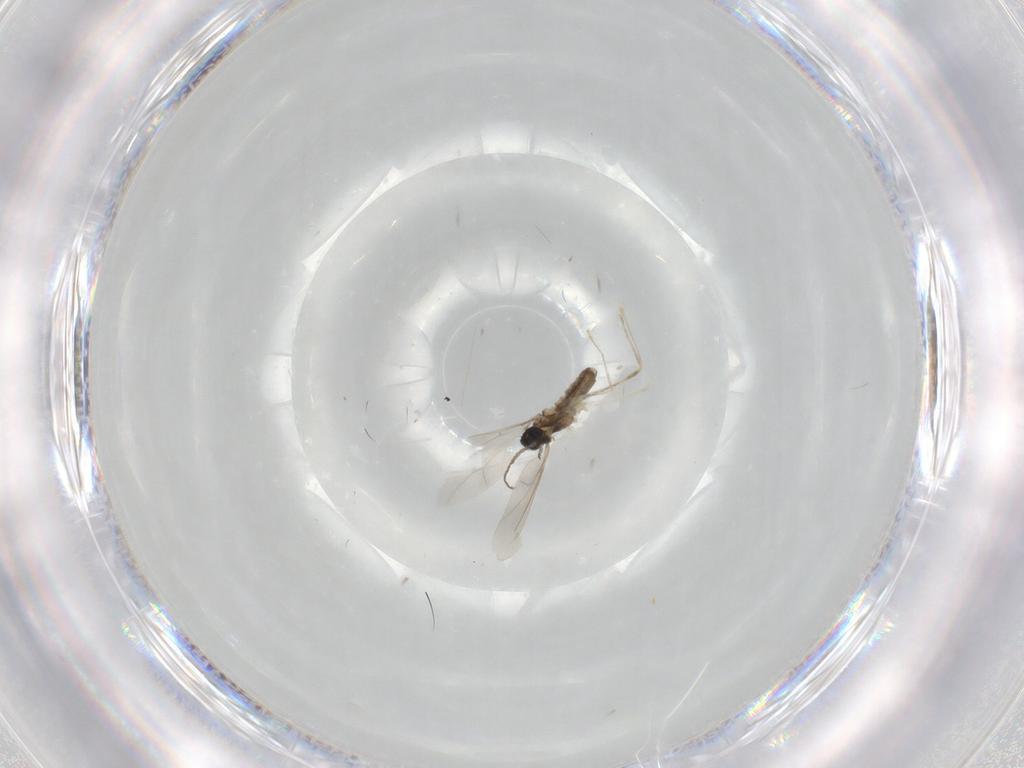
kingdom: Animalia
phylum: Arthropoda
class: Insecta
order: Diptera
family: Cecidomyiidae
